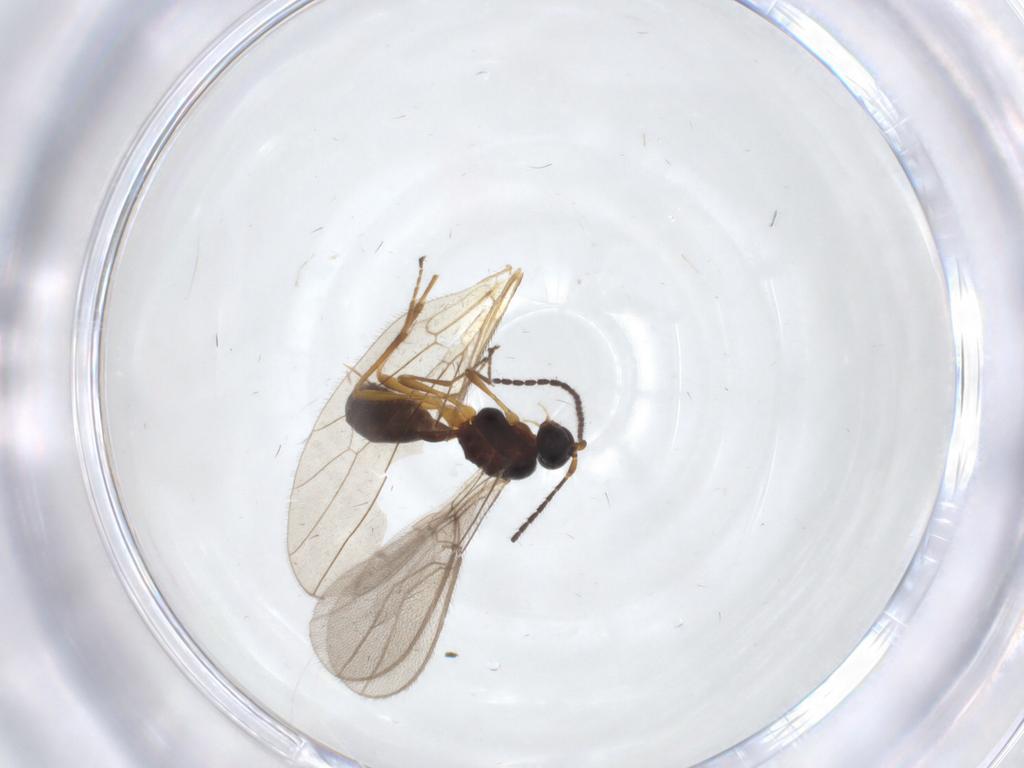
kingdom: Animalia
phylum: Arthropoda
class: Insecta
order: Hymenoptera
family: Braconidae
